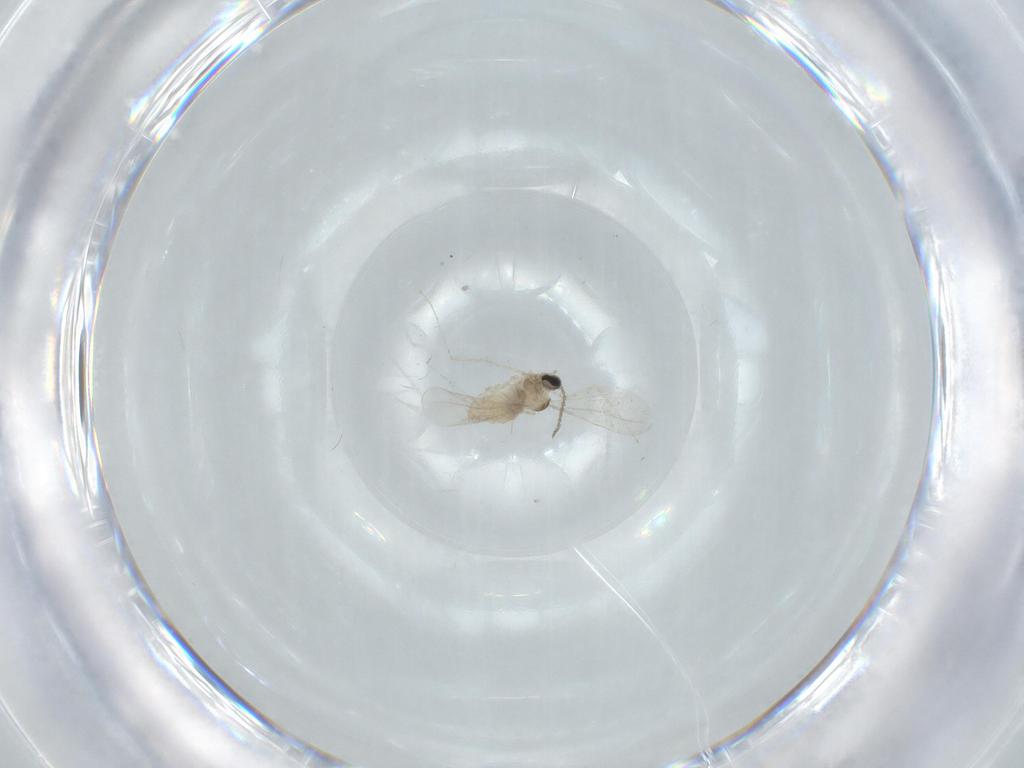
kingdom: Animalia
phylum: Arthropoda
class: Insecta
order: Diptera
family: Cecidomyiidae
